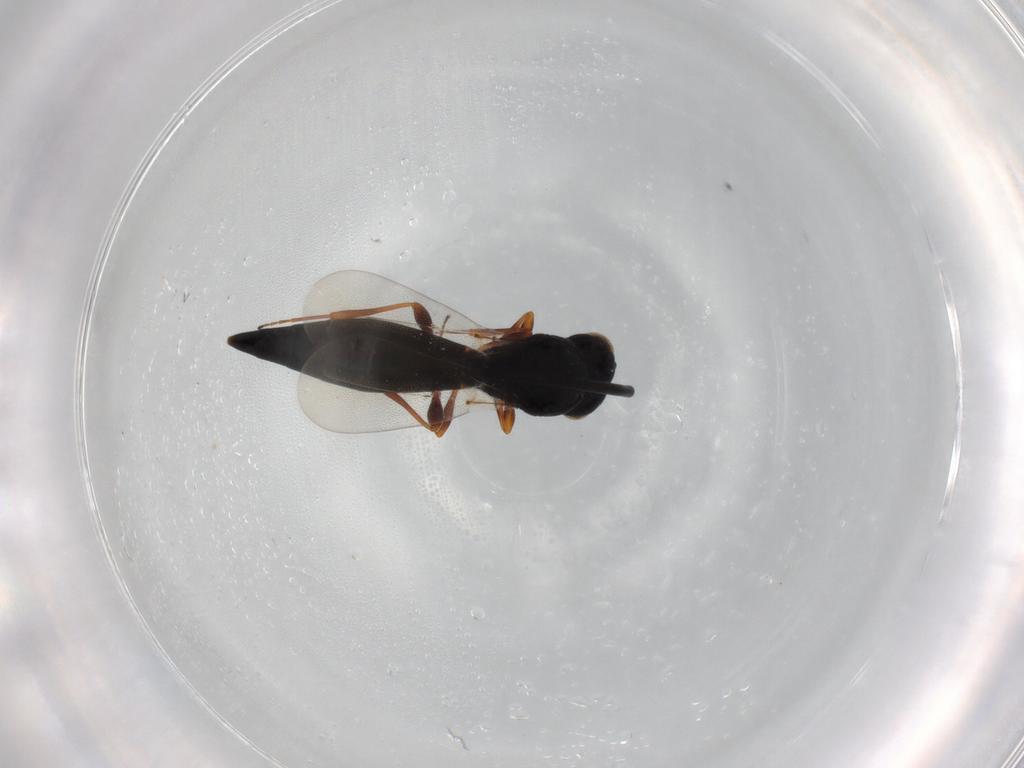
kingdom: Animalia
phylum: Arthropoda
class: Insecta
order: Hymenoptera
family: Platygastridae
